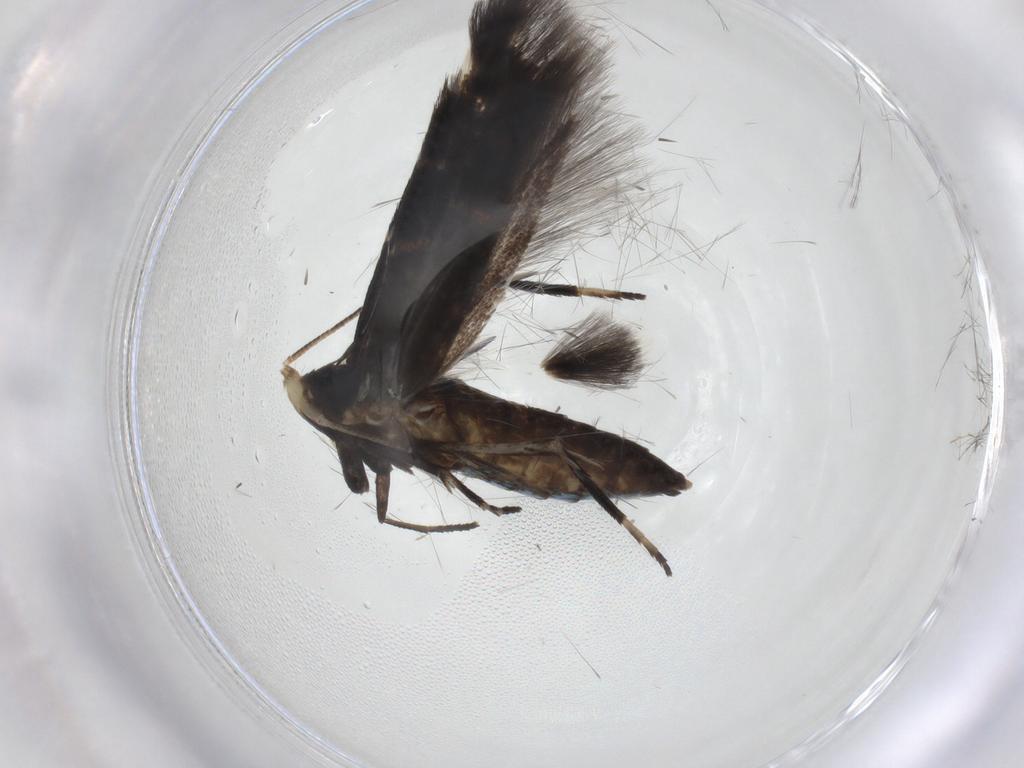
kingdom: Animalia
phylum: Arthropoda
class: Insecta
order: Lepidoptera
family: Gelechiidae
